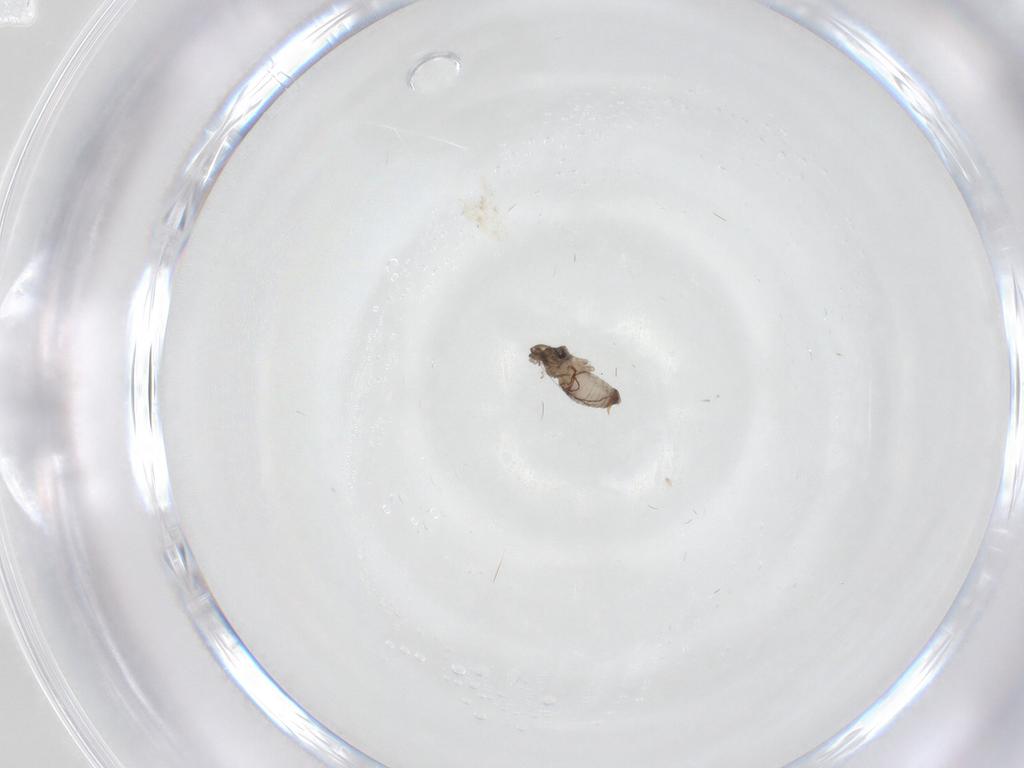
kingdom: Animalia
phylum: Arthropoda
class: Insecta
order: Diptera
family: Psychodidae
